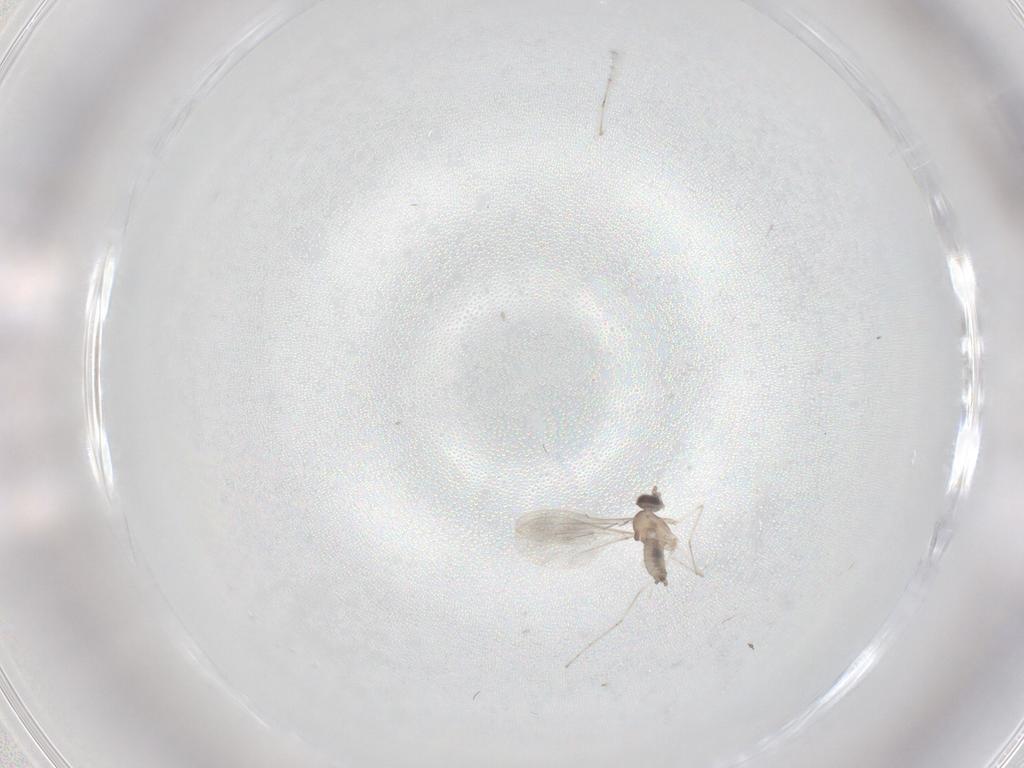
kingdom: Animalia
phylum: Arthropoda
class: Insecta
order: Diptera
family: Cecidomyiidae
